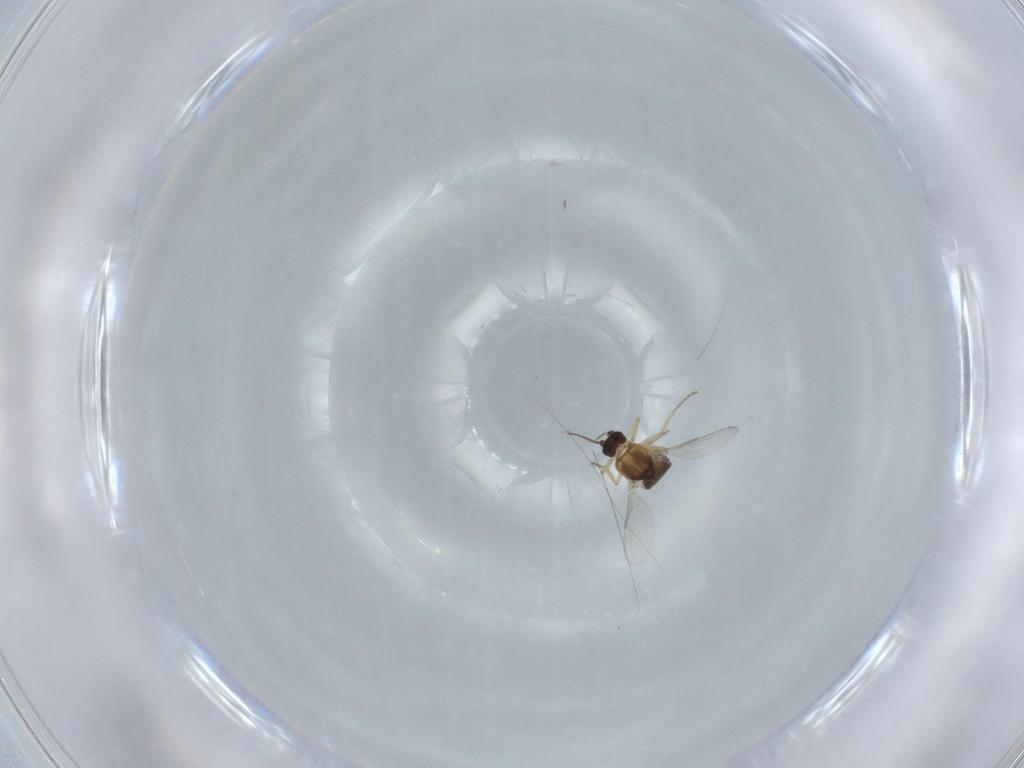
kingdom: Animalia
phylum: Arthropoda
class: Insecta
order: Diptera
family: Ceratopogonidae
